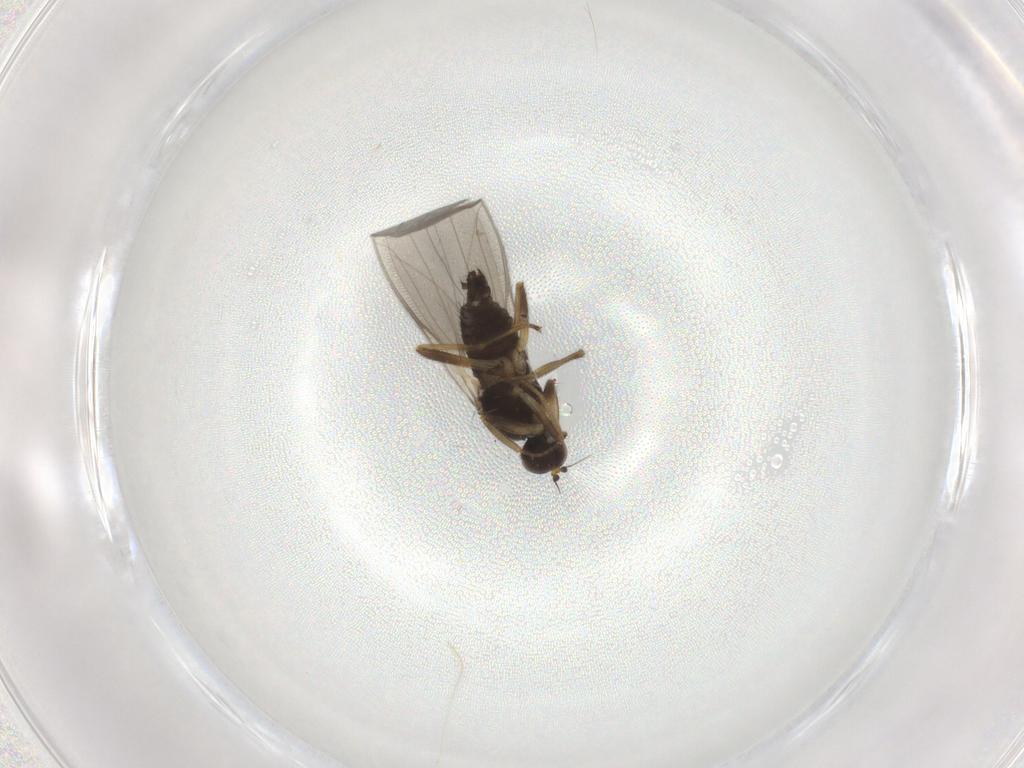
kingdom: Animalia
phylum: Arthropoda
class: Insecta
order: Diptera
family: Hybotidae
